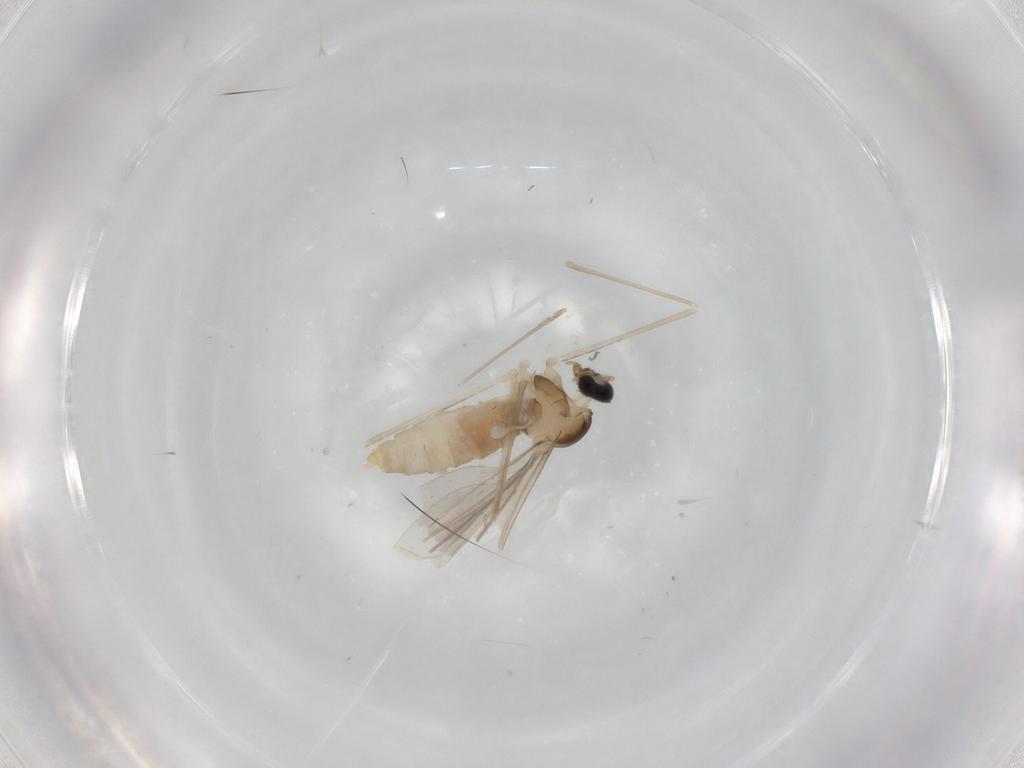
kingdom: Animalia
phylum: Arthropoda
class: Insecta
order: Diptera
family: Cecidomyiidae
